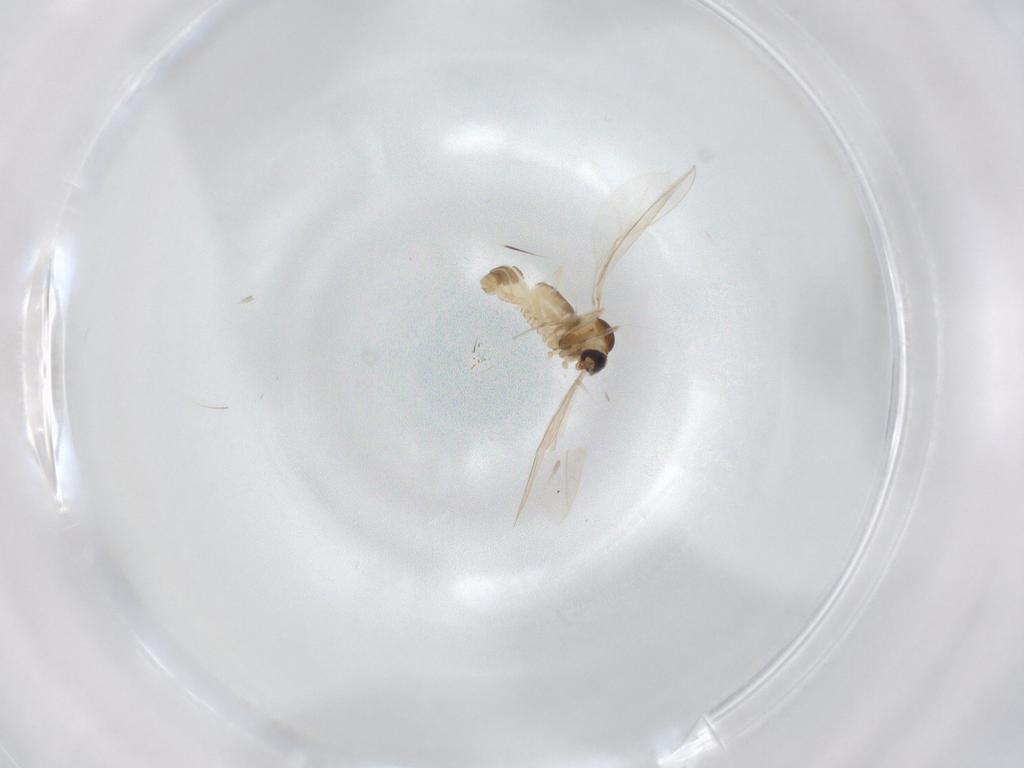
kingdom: Animalia
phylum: Arthropoda
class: Insecta
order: Diptera
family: Cecidomyiidae
